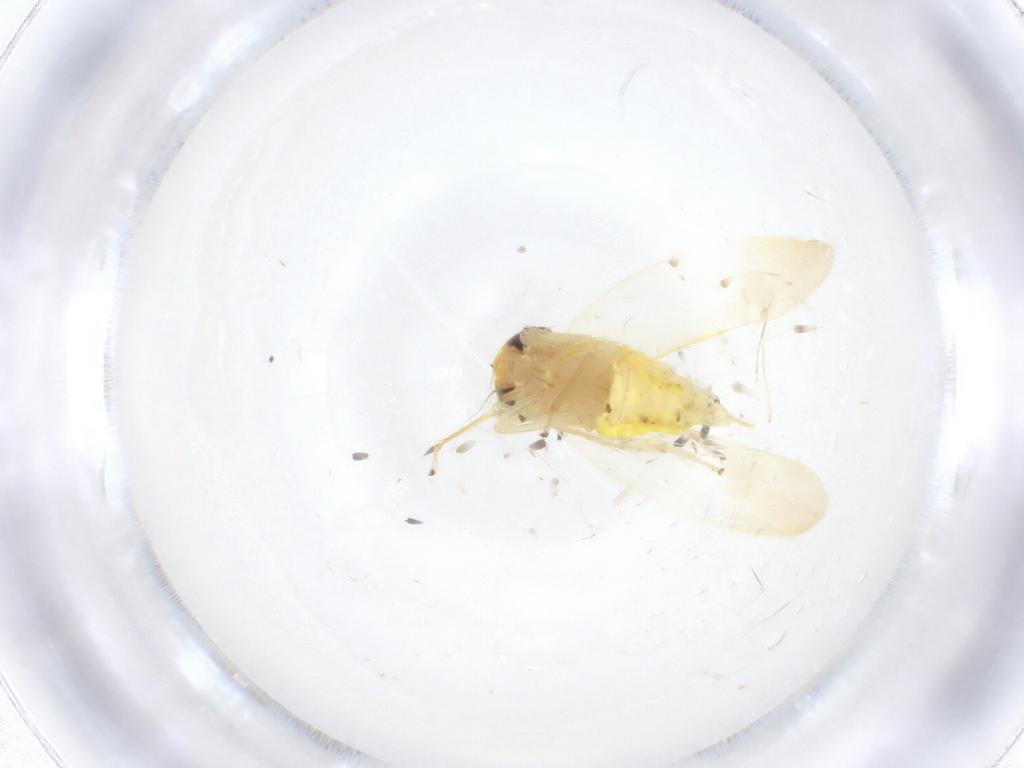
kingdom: Animalia
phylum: Arthropoda
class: Insecta
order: Hemiptera
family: Cicadellidae
